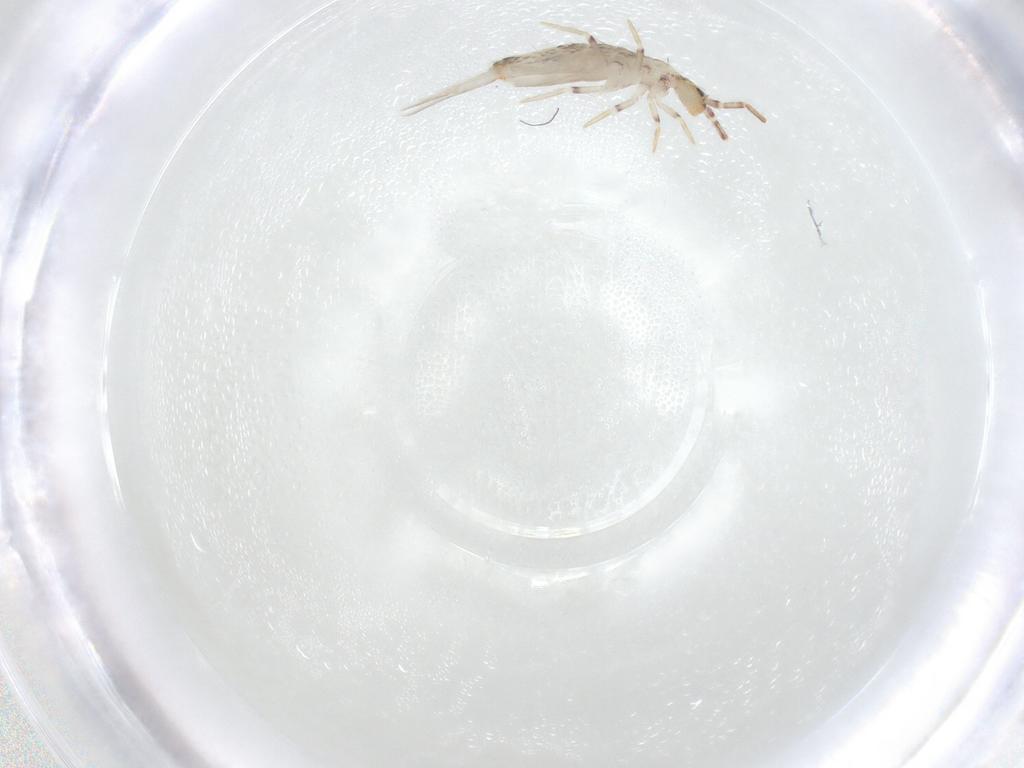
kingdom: Animalia
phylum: Arthropoda
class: Collembola
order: Entomobryomorpha
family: Entomobryidae
